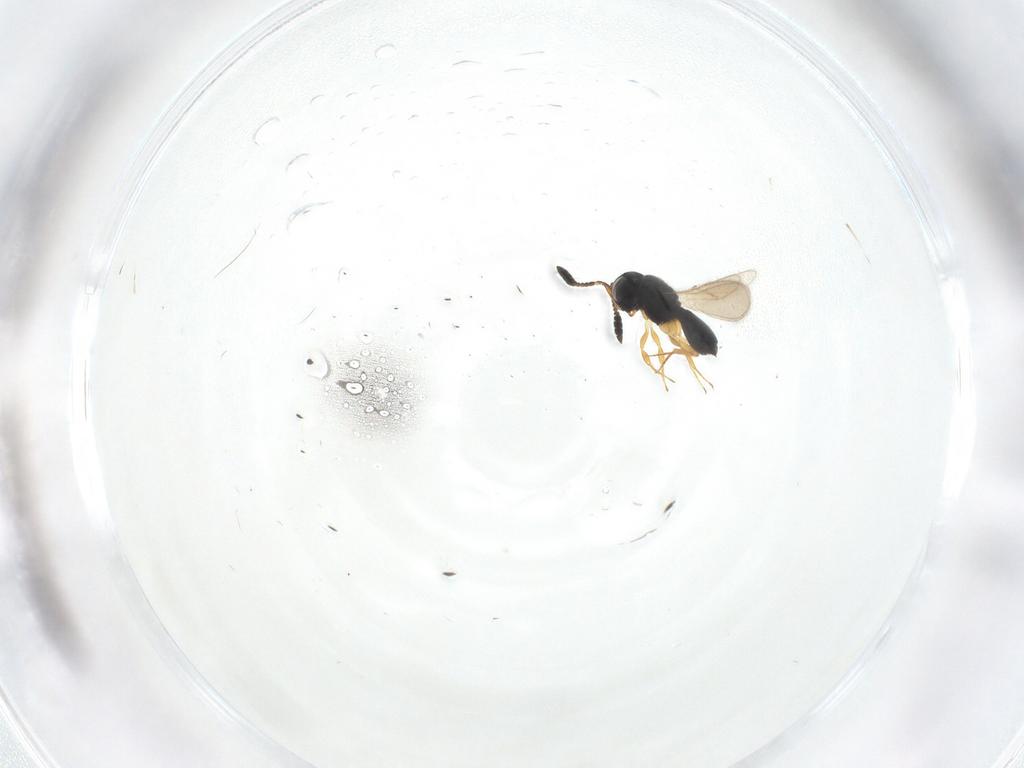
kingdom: Animalia
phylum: Arthropoda
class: Insecta
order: Hymenoptera
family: Scelionidae
